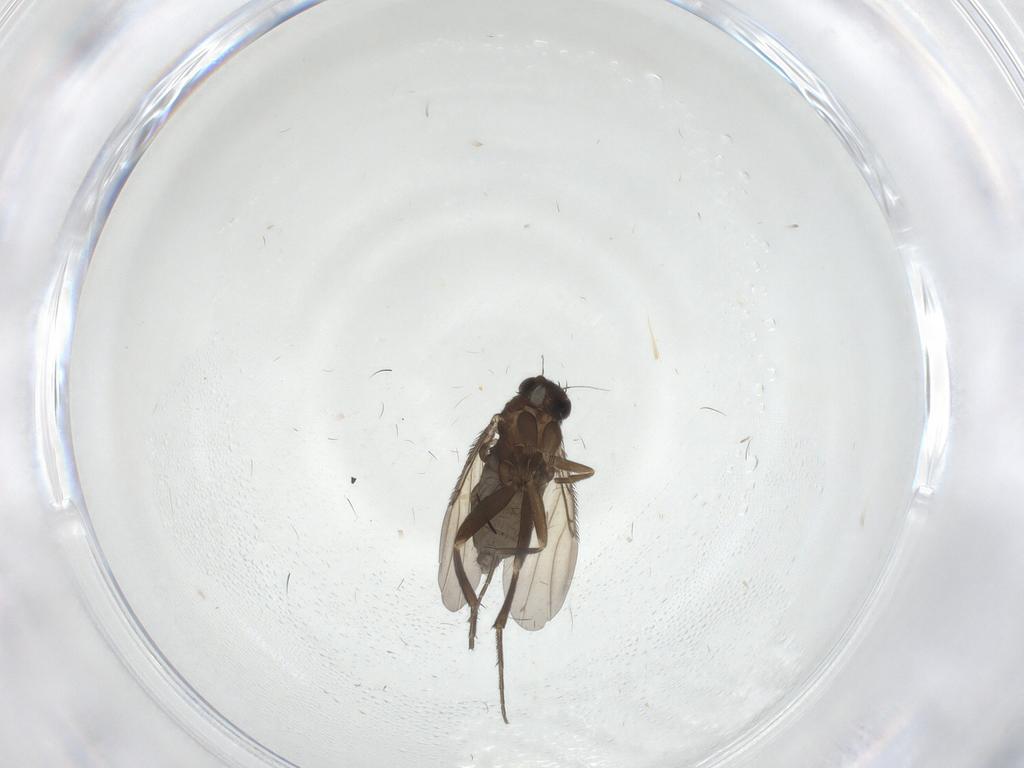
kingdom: Animalia
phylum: Arthropoda
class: Insecta
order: Diptera
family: Phoridae
